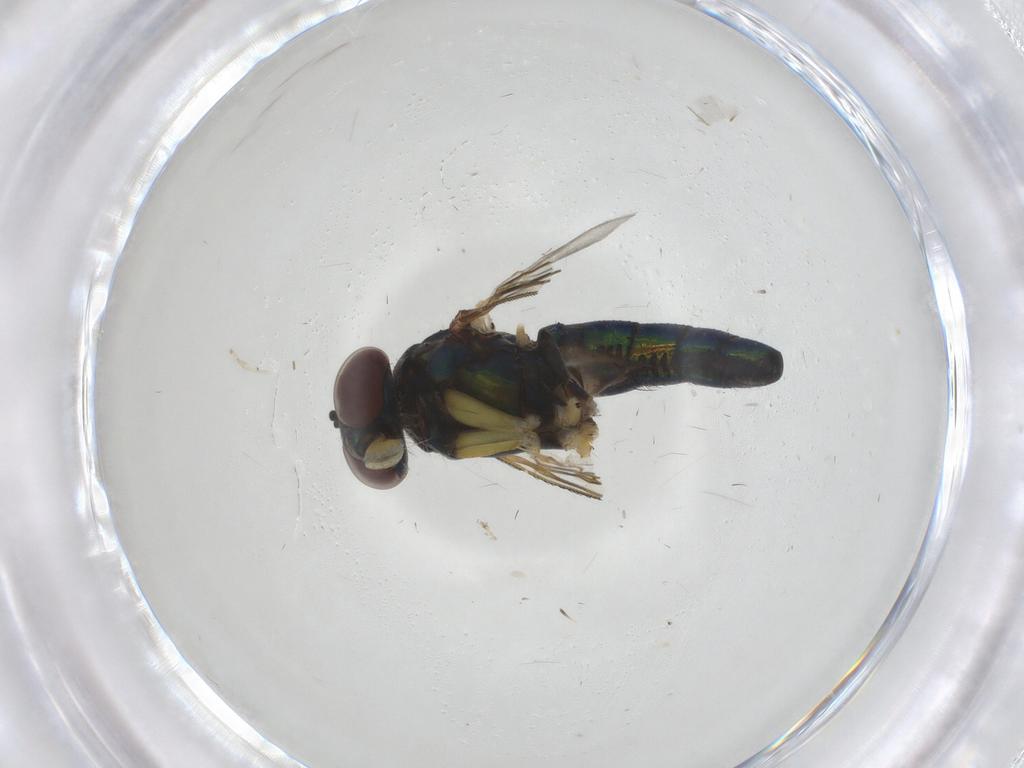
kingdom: Animalia
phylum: Arthropoda
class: Insecta
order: Diptera
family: Dolichopodidae
